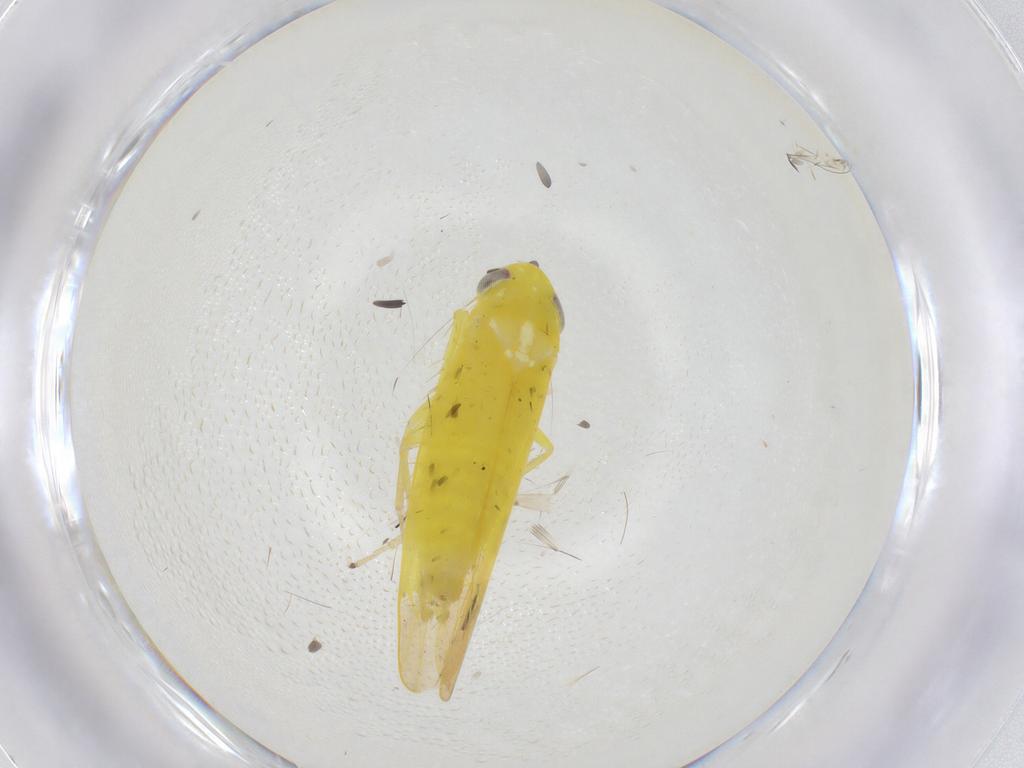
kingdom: Animalia
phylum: Arthropoda
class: Insecta
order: Hemiptera
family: Cicadellidae
